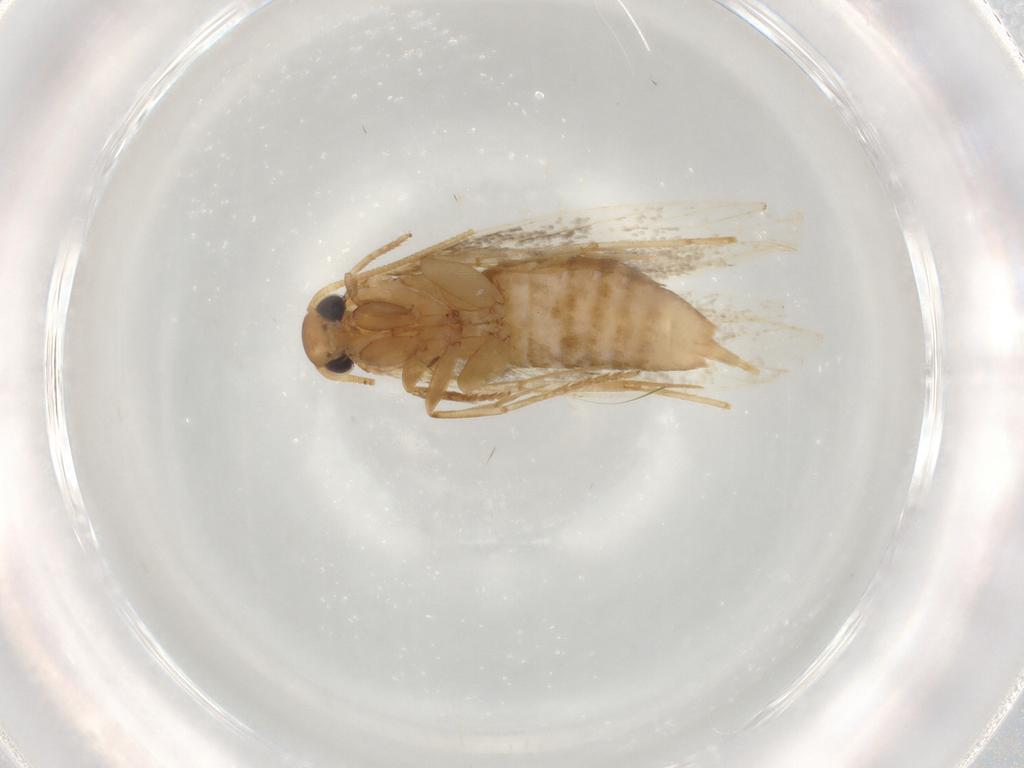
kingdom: Animalia
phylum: Arthropoda
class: Insecta
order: Lepidoptera
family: Tineidae
